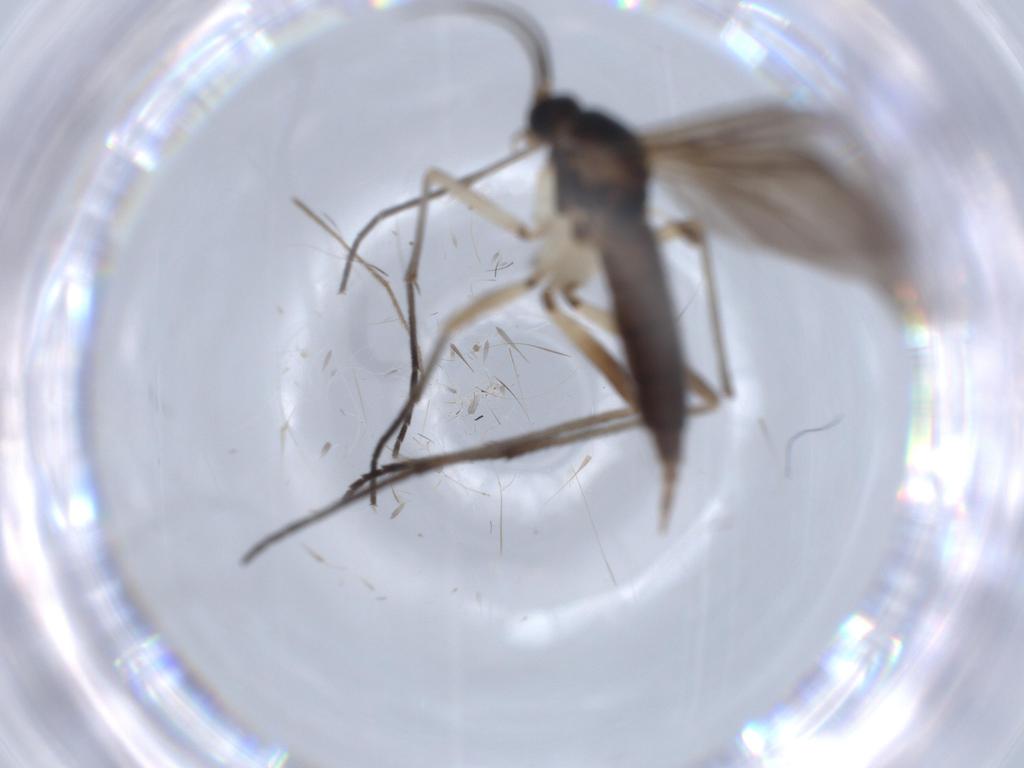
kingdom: Animalia
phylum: Arthropoda
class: Insecta
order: Diptera
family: Sciaridae
